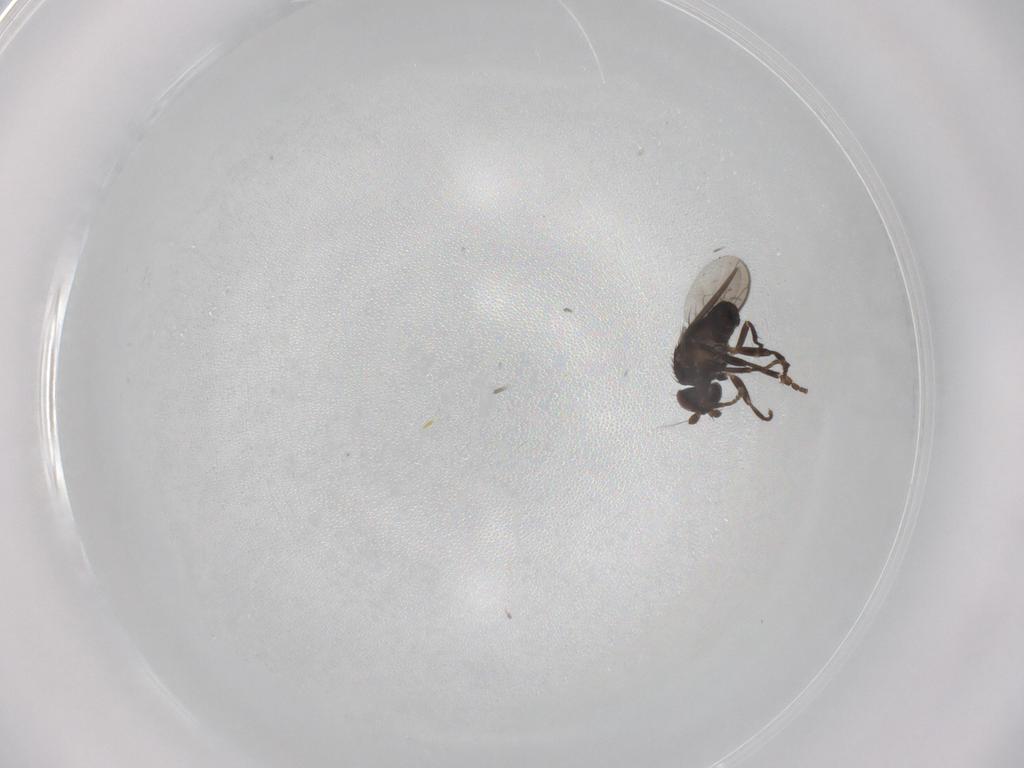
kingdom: Animalia
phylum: Arthropoda
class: Insecta
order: Diptera
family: Sphaeroceridae
